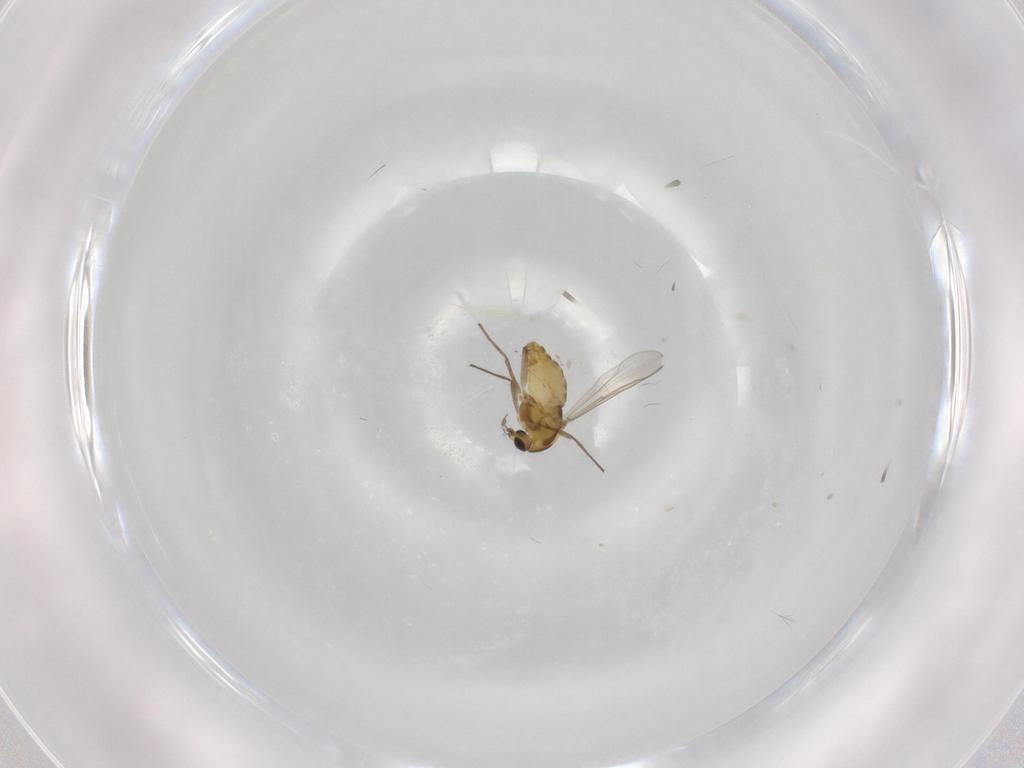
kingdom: Animalia
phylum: Arthropoda
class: Insecta
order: Diptera
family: Chironomidae
